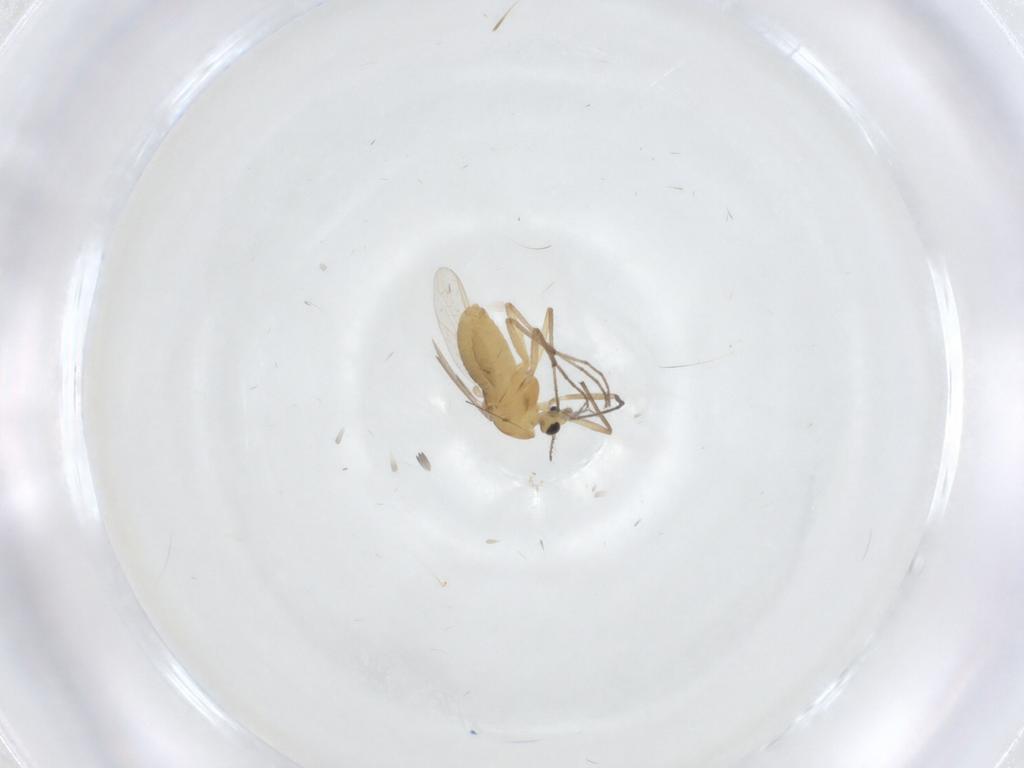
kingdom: Animalia
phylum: Arthropoda
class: Insecta
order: Diptera
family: Chironomidae
